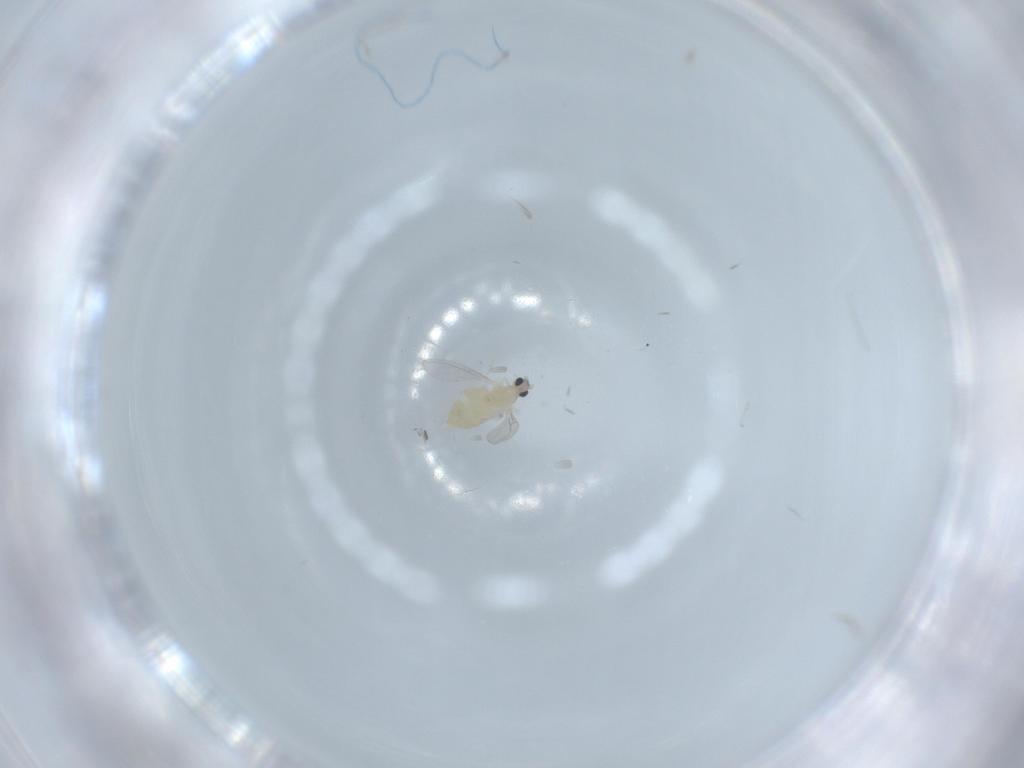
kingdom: Animalia
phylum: Arthropoda
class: Insecta
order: Diptera
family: Cecidomyiidae
